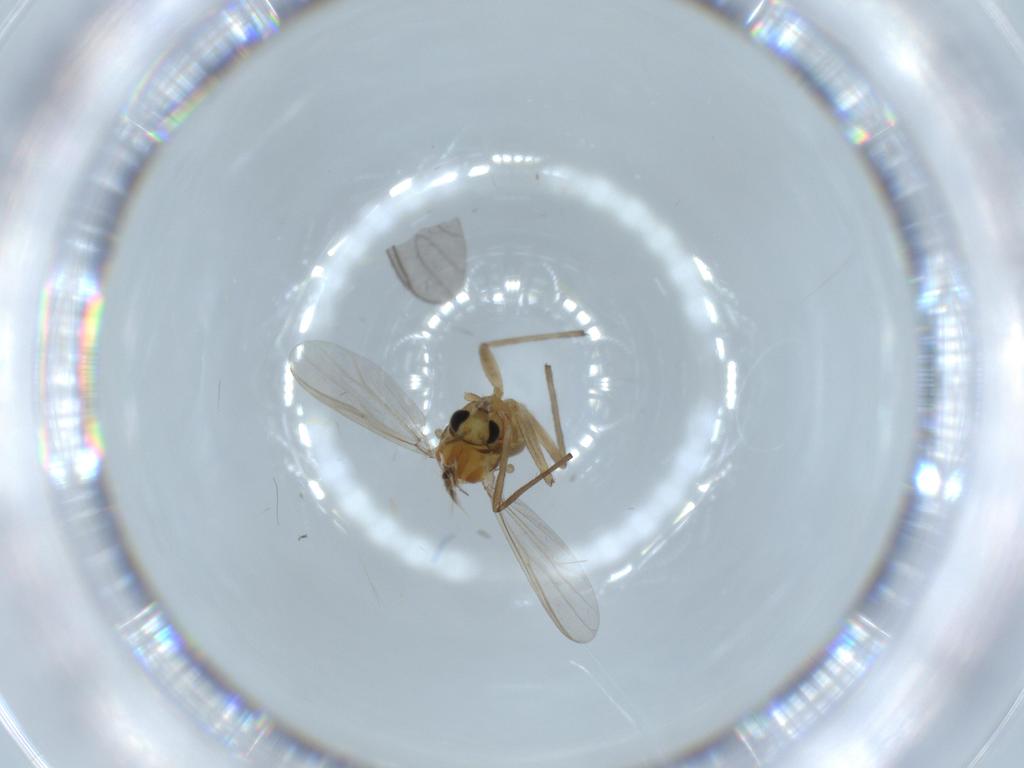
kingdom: Animalia
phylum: Arthropoda
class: Insecta
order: Diptera
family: Chironomidae
